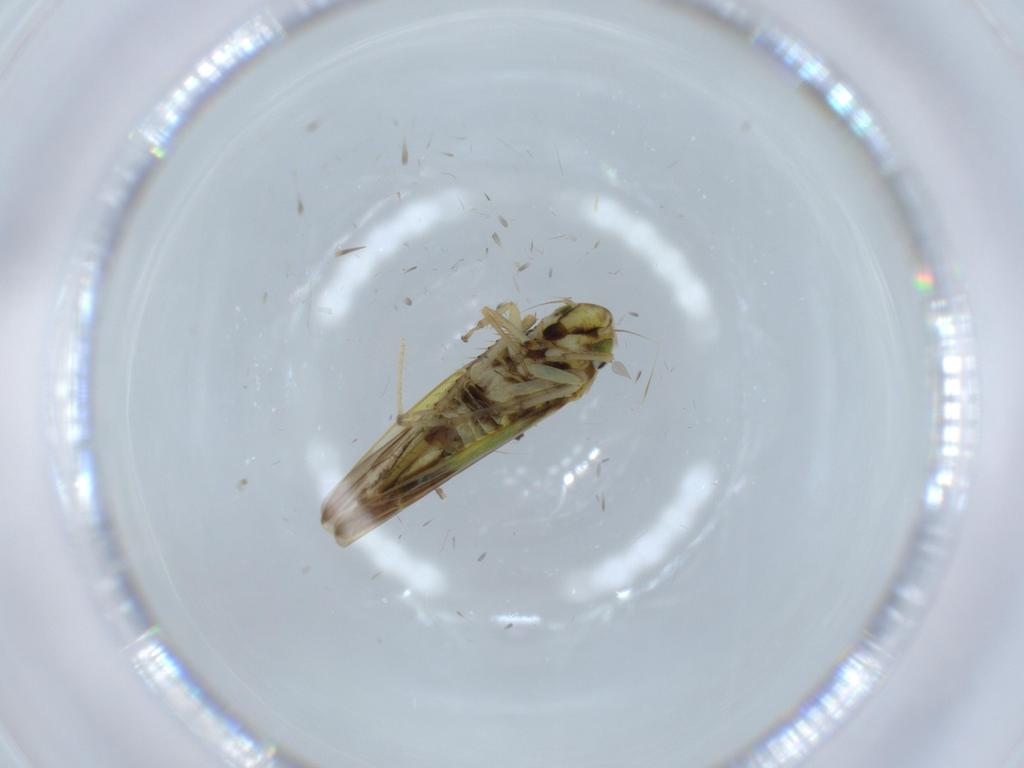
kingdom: Animalia
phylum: Arthropoda
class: Insecta
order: Hemiptera
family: Cicadellidae
